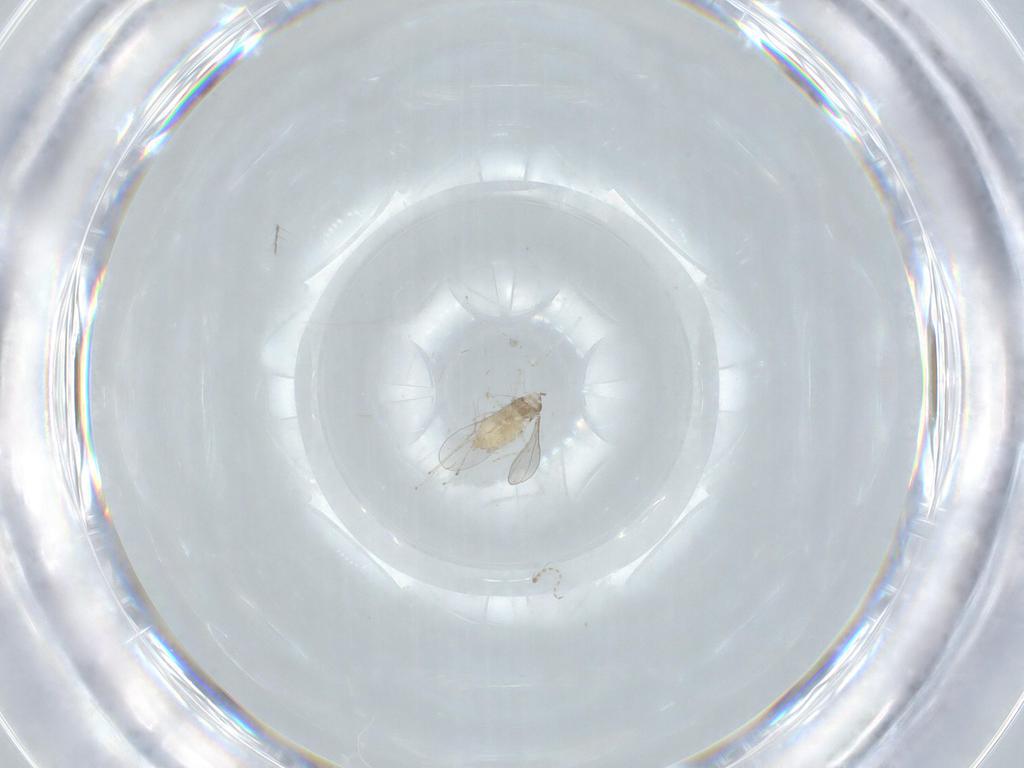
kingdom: Animalia
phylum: Arthropoda
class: Insecta
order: Diptera
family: Cecidomyiidae
